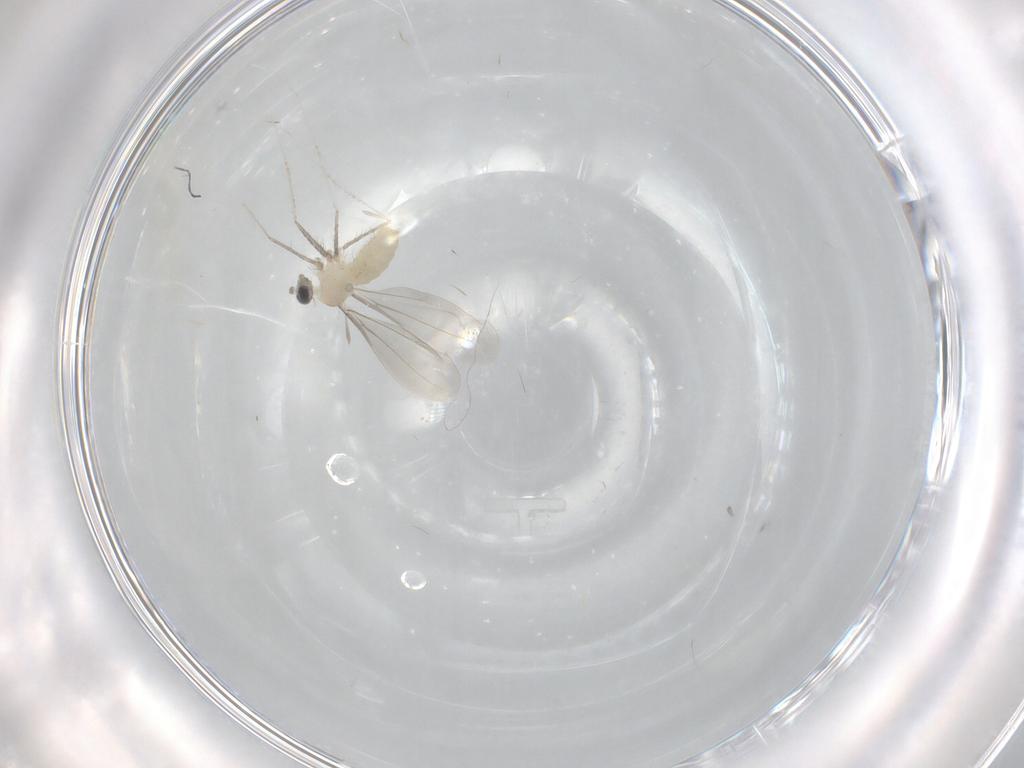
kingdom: Animalia
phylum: Arthropoda
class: Insecta
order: Diptera
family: Cecidomyiidae
